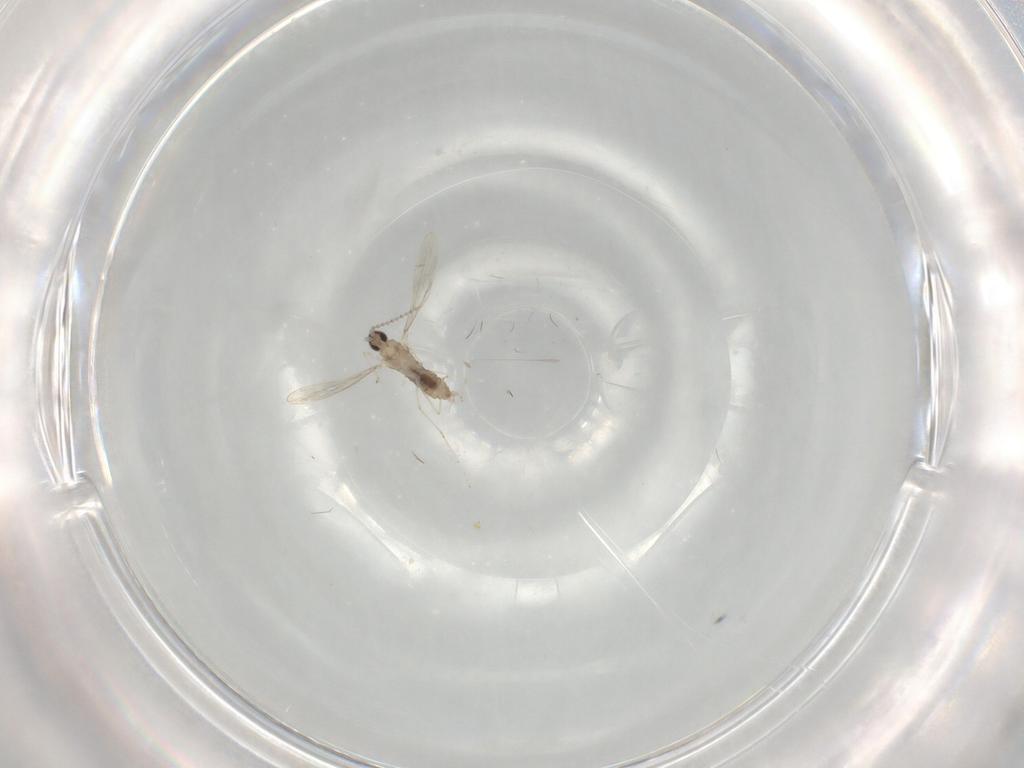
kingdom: Animalia
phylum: Arthropoda
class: Insecta
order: Diptera
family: Cecidomyiidae
